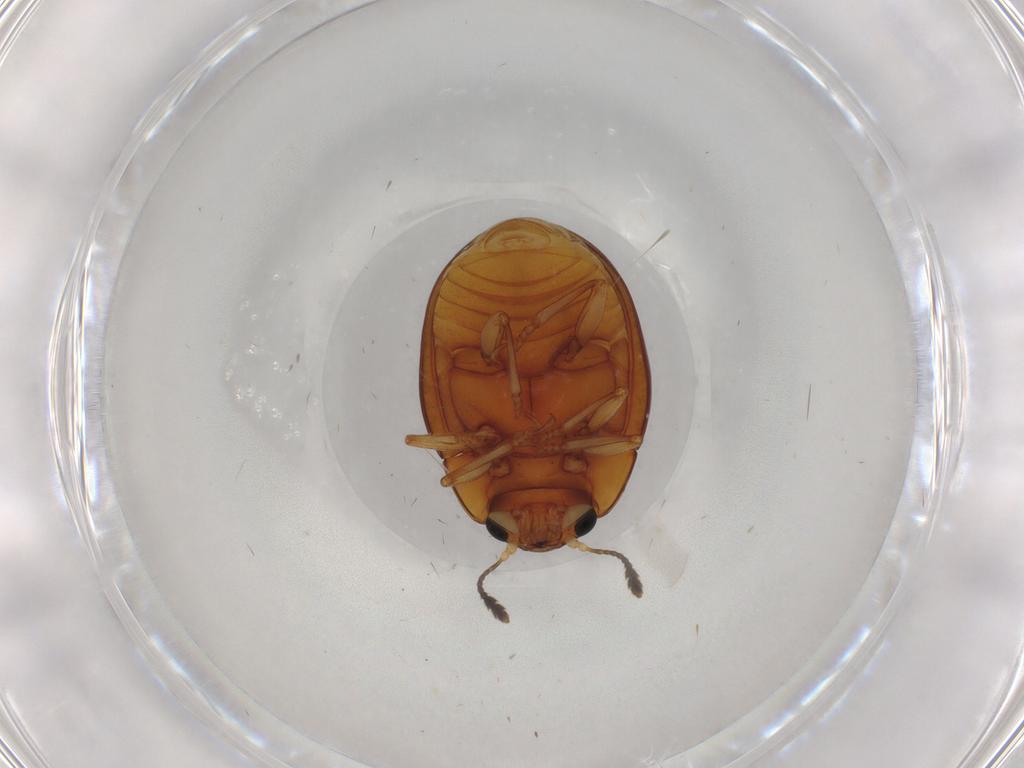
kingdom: Animalia
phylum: Arthropoda
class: Insecta
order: Coleoptera
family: Erotylidae
